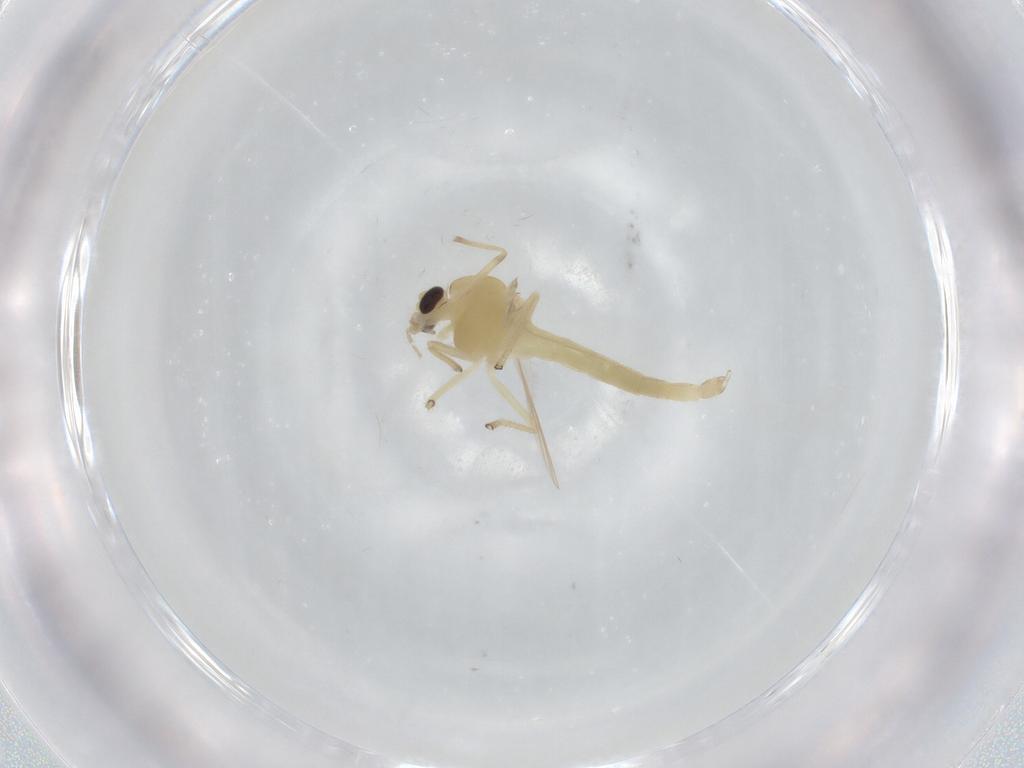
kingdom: Animalia
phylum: Arthropoda
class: Insecta
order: Diptera
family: Chironomidae
